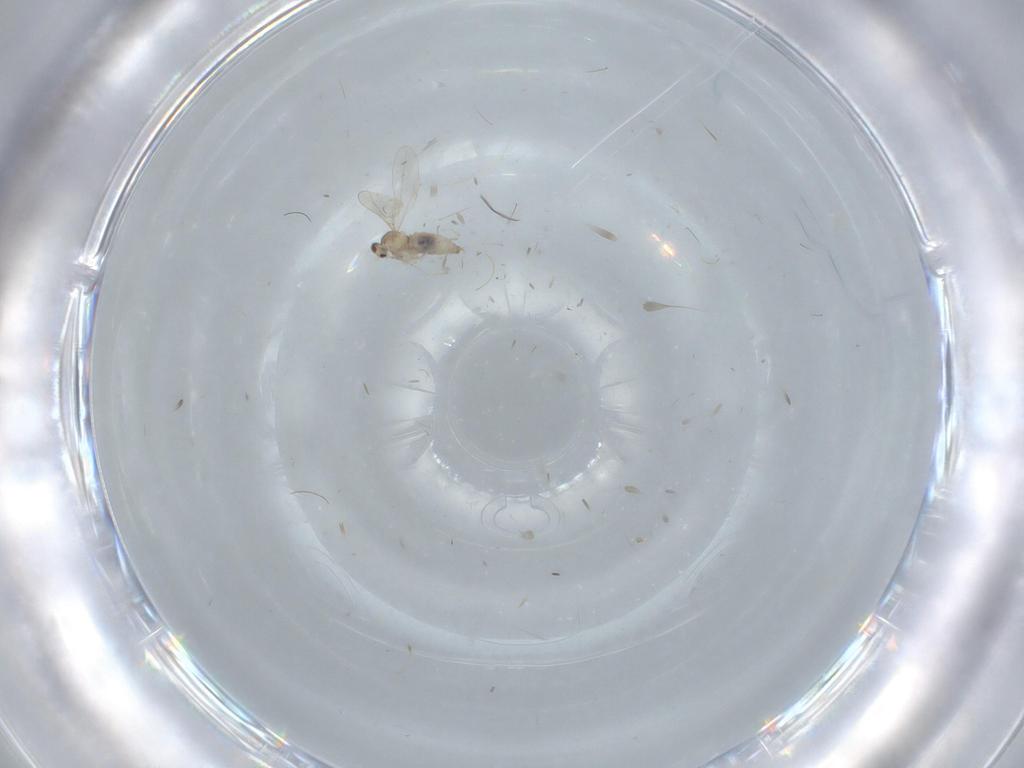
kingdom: Animalia
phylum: Arthropoda
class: Insecta
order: Diptera
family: Cecidomyiidae
